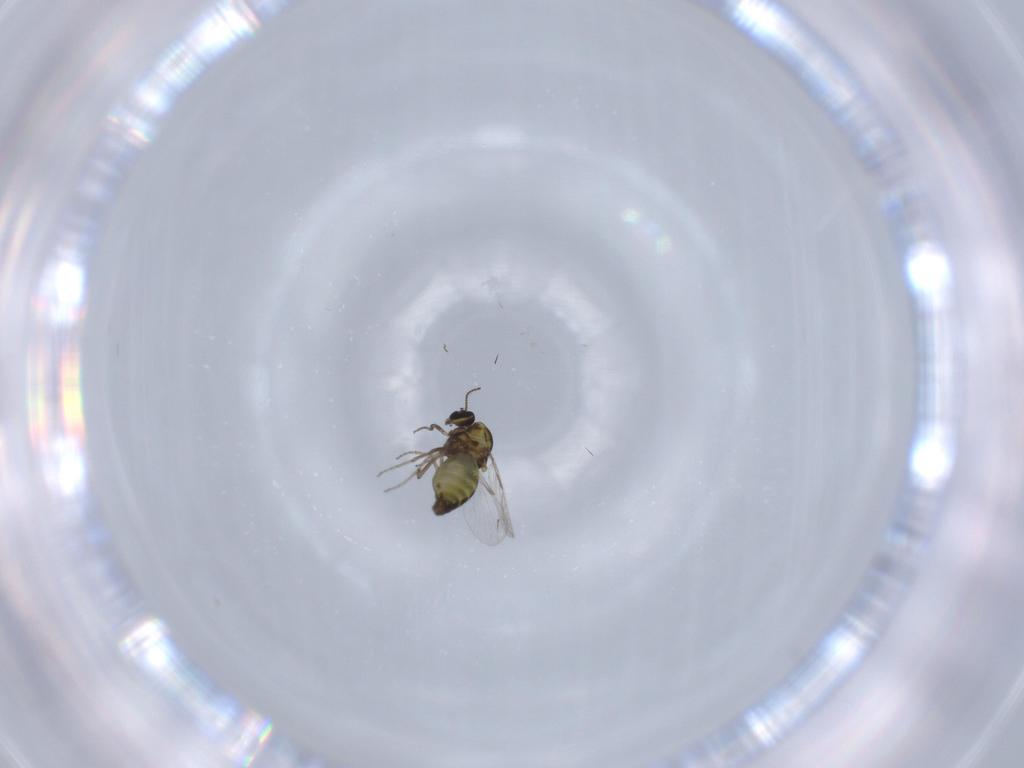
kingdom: Animalia
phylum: Arthropoda
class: Insecta
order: Diptera
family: Ceratopogonidae
